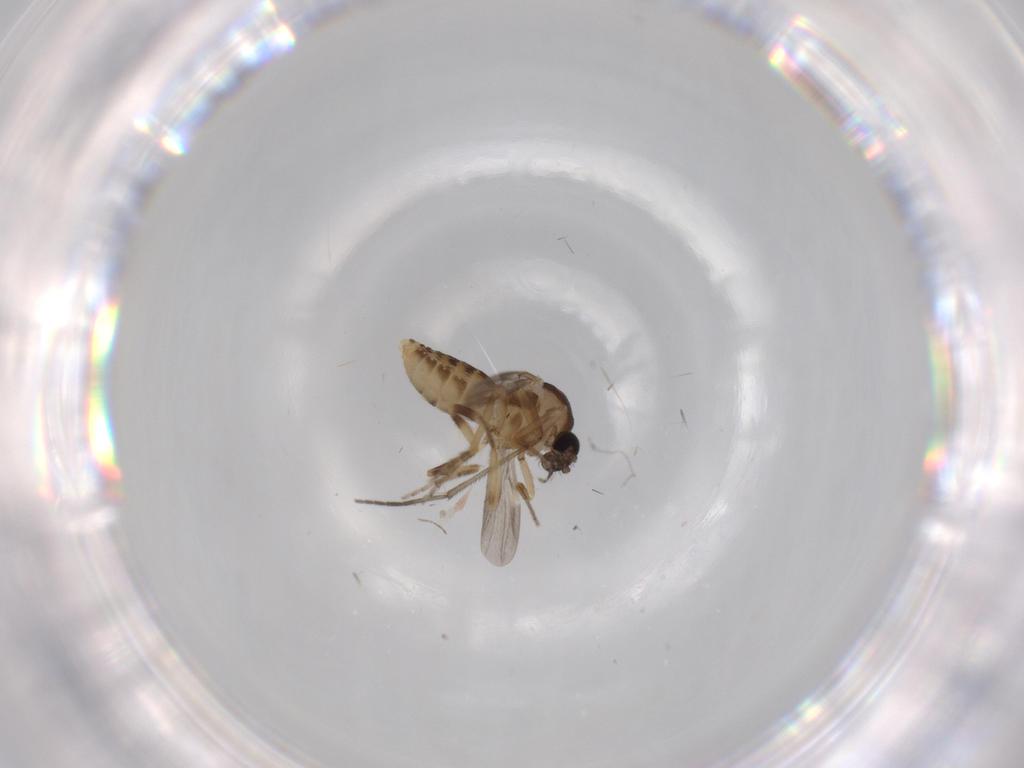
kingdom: Animalia
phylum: Arthropoda
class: Insecta
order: Diptera
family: Ceratopogonidae
